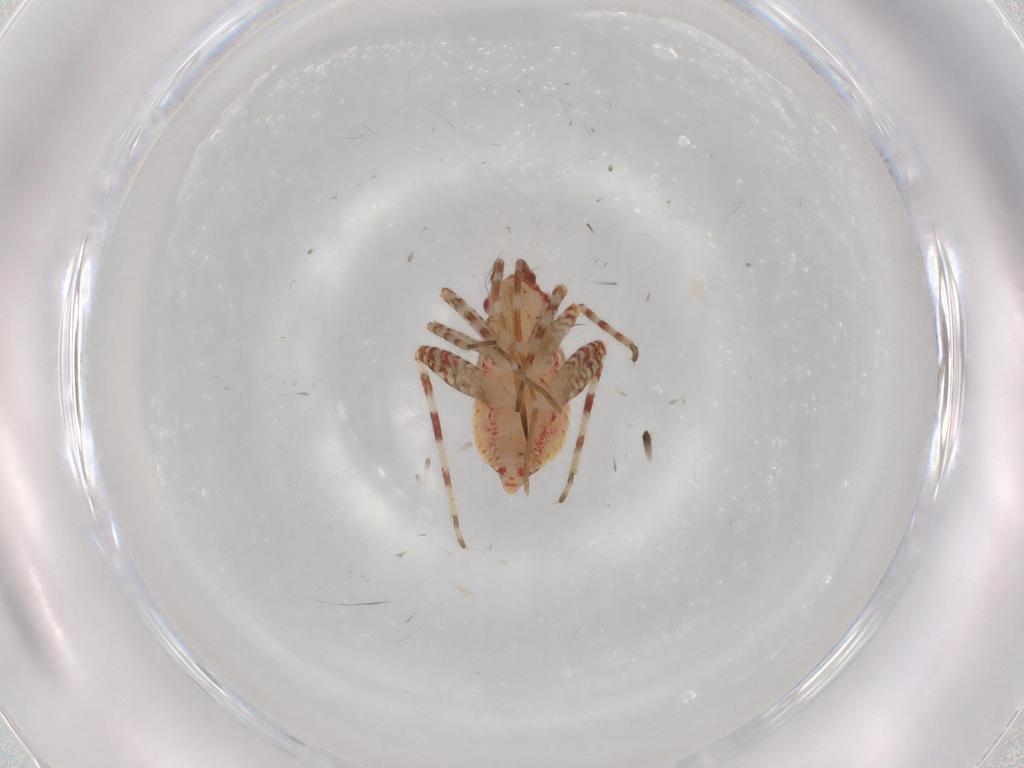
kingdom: Animalia
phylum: Arthropoda
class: Insecta
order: Hemiptera
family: Miridae
